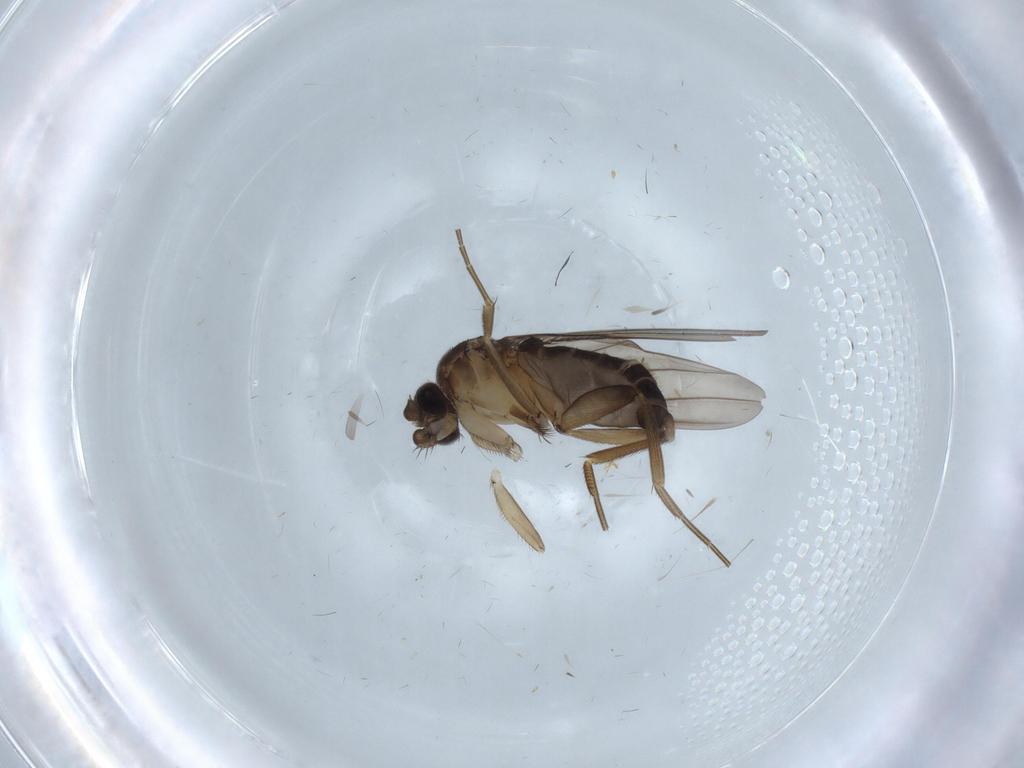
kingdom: Animalia
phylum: Arthropoda
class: Insecta
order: Diptera
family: Phoridae
